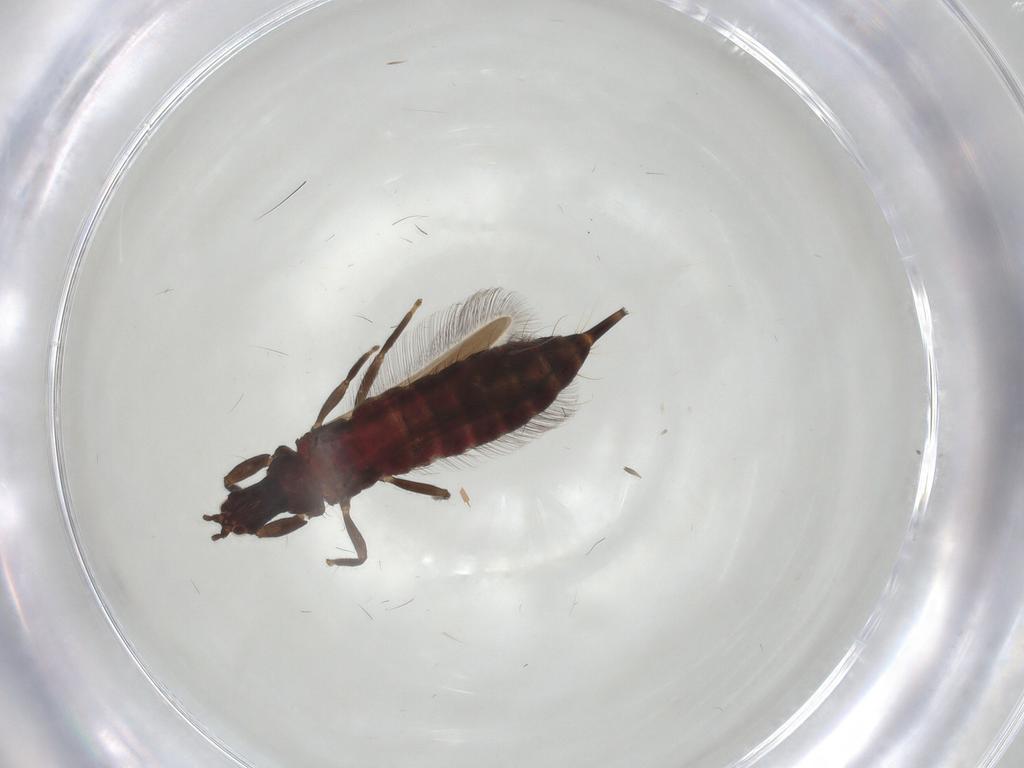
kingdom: Animalia
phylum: Arthropoda
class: Insecta
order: Thysanoptera
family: Phlaeothripidae
